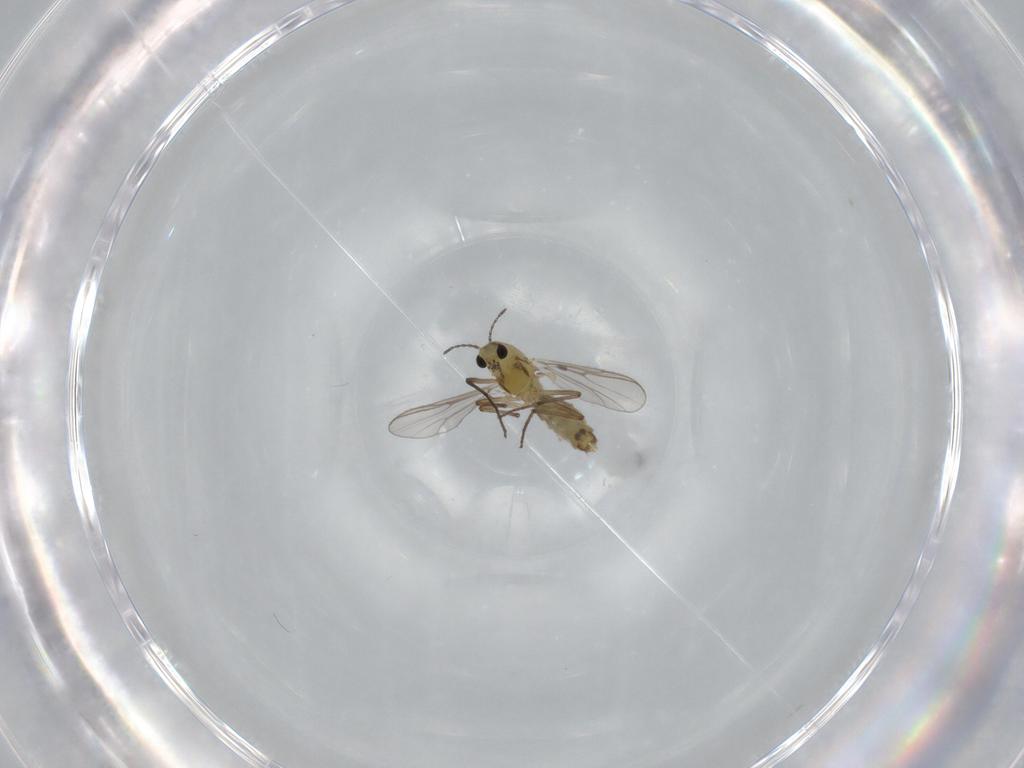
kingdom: Animalia
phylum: Arthropoda
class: Insecta
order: Diptera
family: Chironomidae
